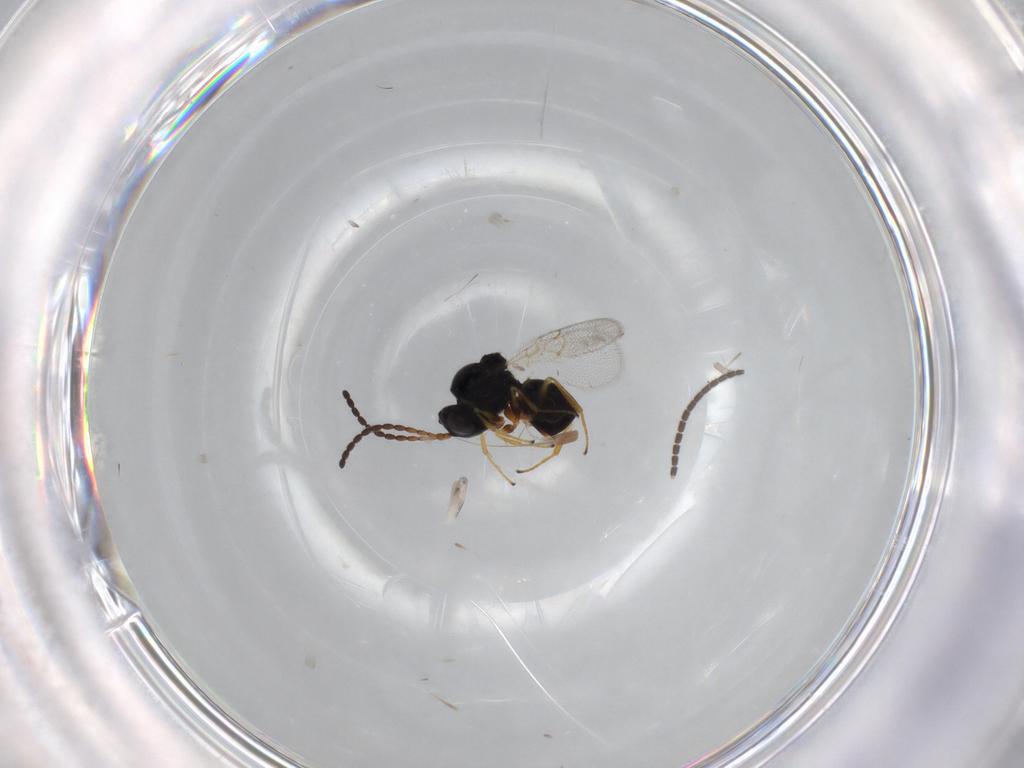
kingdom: Animalia
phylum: Arthropoda
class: Insecta
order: Hymenoptera
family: Figitidae
